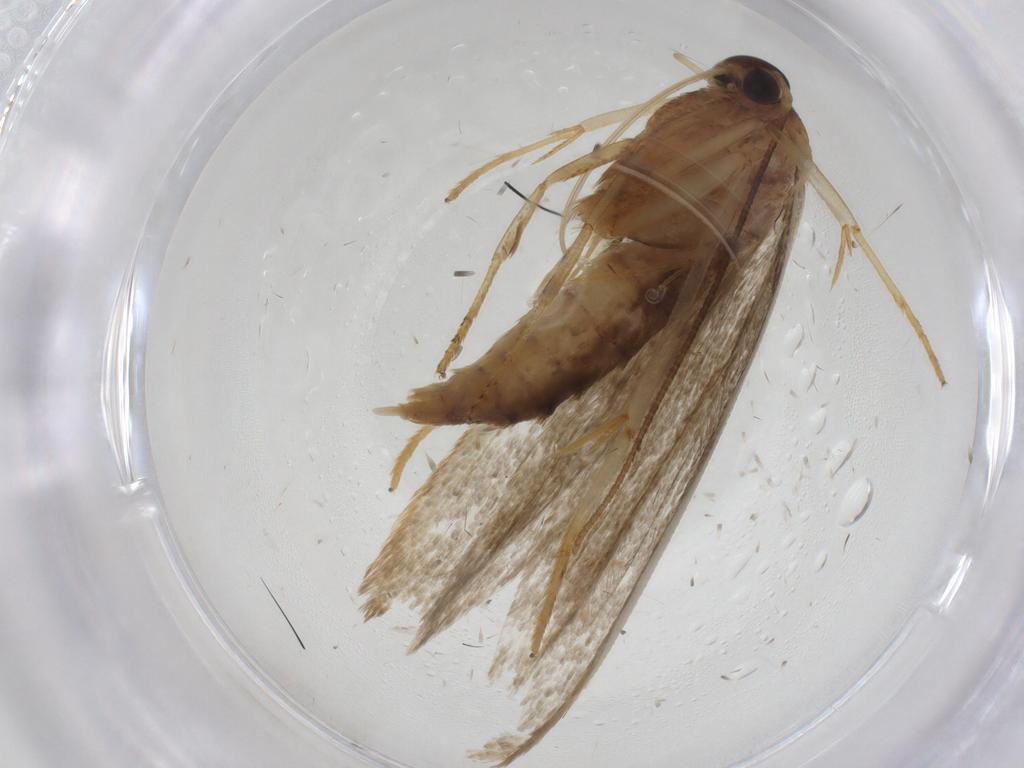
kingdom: Animalia
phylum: Arthropoda
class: Insecta
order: Lepidoptera
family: Blastobasidae
